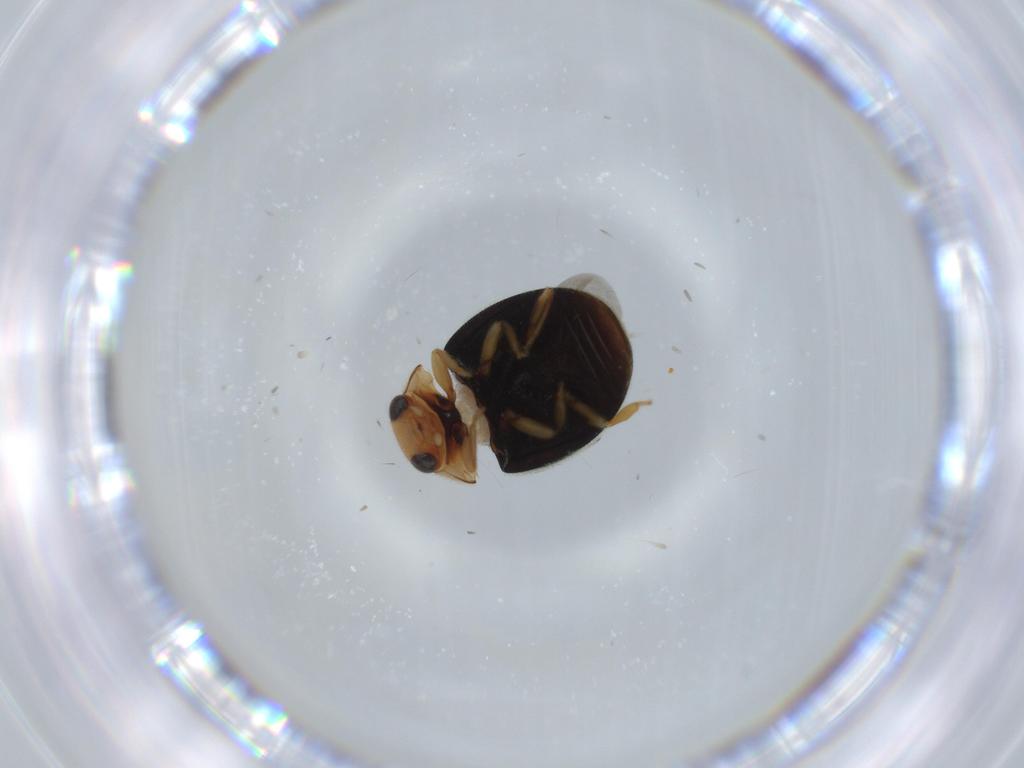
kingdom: Animalia
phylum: Arthropoda
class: Insecta
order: Coleoptera
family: Coccinellidae
